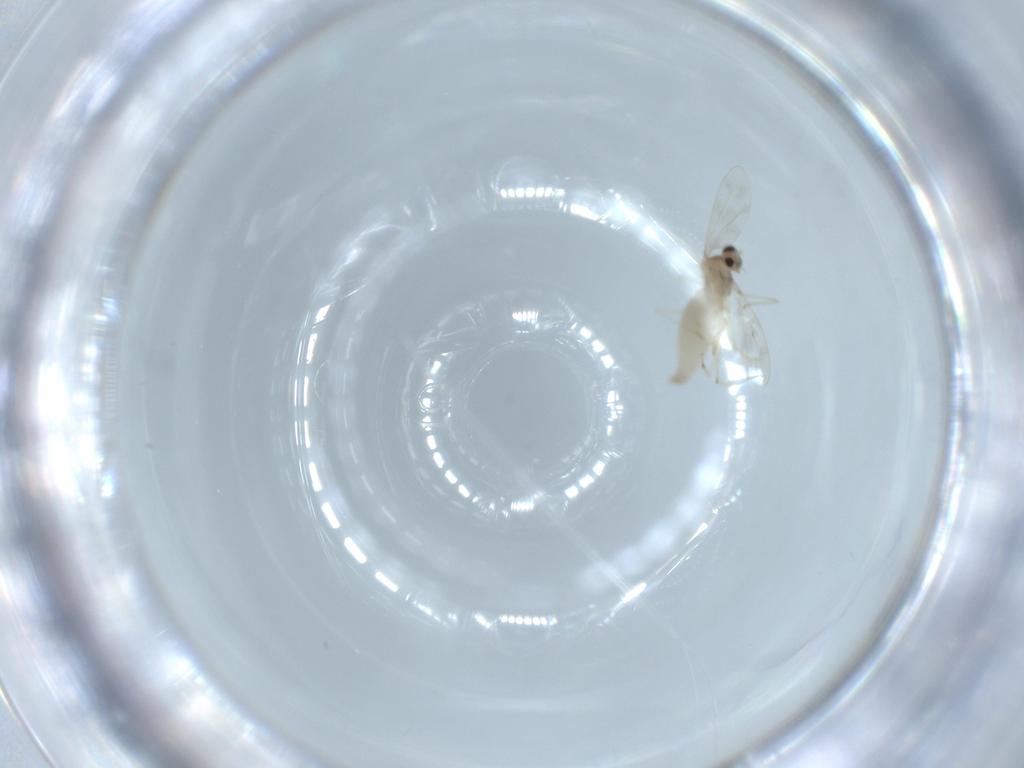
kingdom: Animalia
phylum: Arthropoda
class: Insecta
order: Diptera
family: Cecidomyiidae
